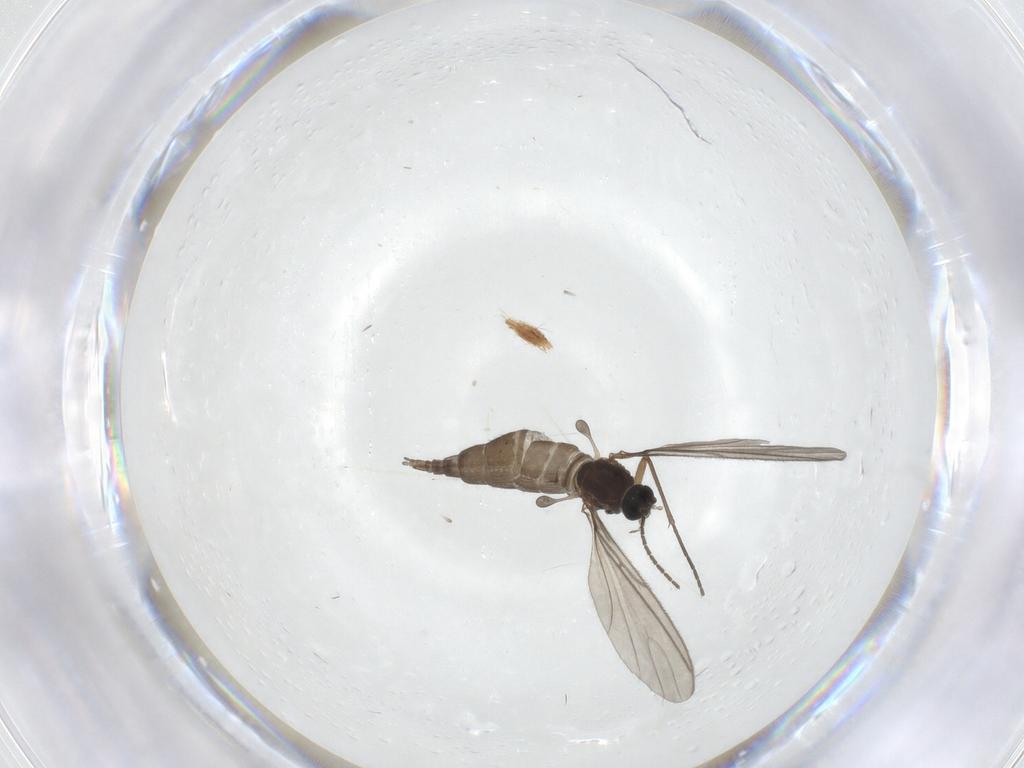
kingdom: Animalia
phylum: Arthropoda
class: Insecta
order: Diptera
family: Sciaridae
